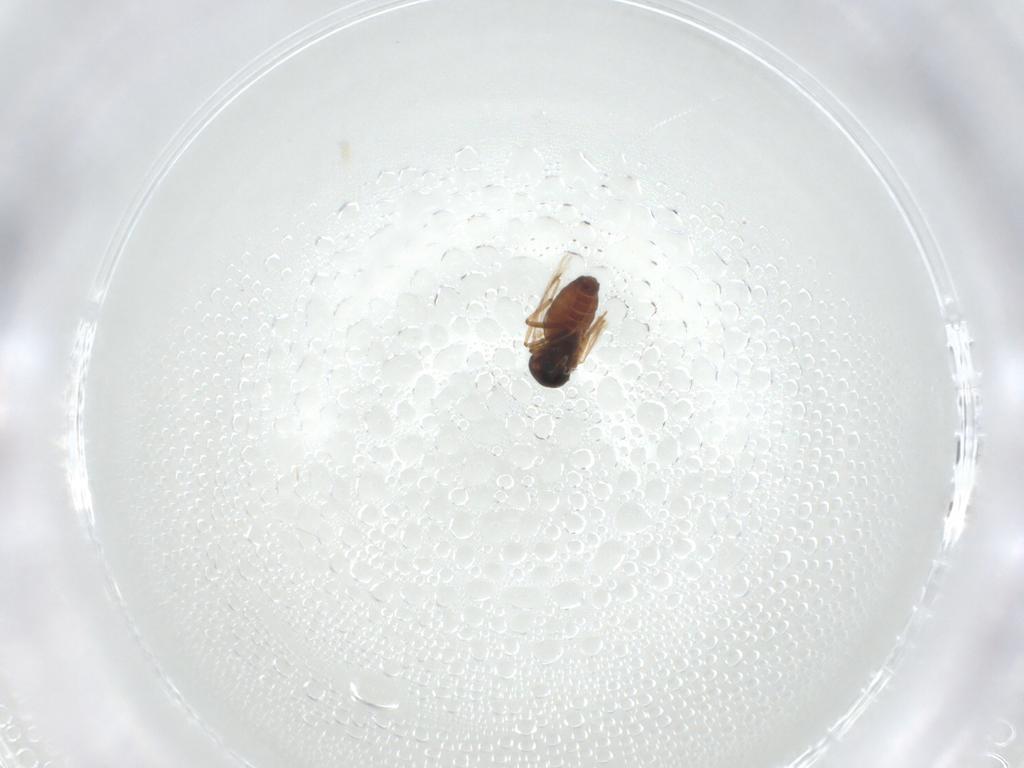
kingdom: Animalia
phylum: Arthropoda
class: Insecta
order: Diptera
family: Ceratopogonidae
